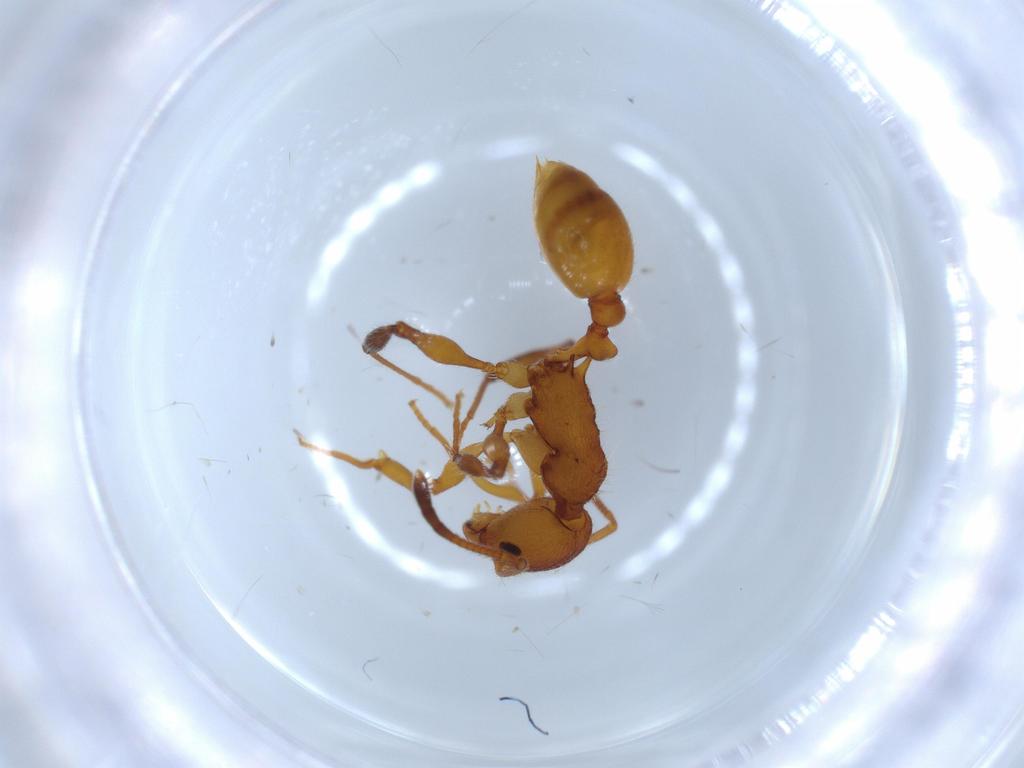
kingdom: Animalia
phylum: Arthropoda
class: Insecta
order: Hymenoptera
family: Formicidae
